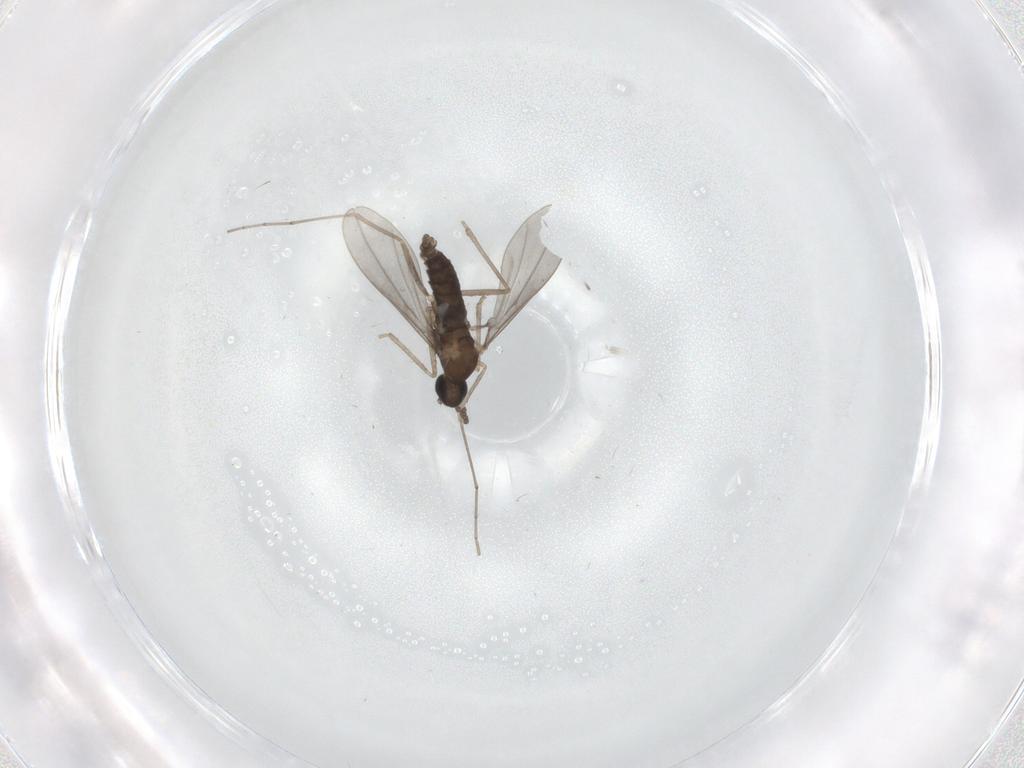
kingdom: Animalia
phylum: Arthropoda
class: Insecta
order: Diptera
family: Cecidomyiidae
